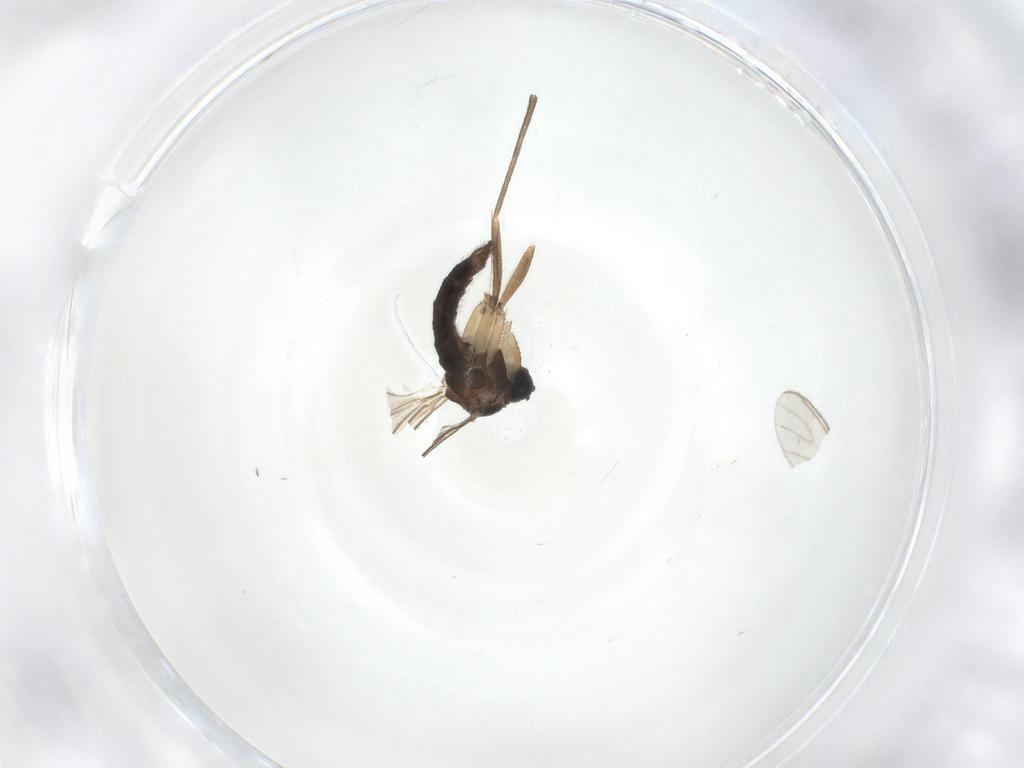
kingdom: Animalia
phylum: Arthropoda
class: Insecta
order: Diptera
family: Sciaridae
